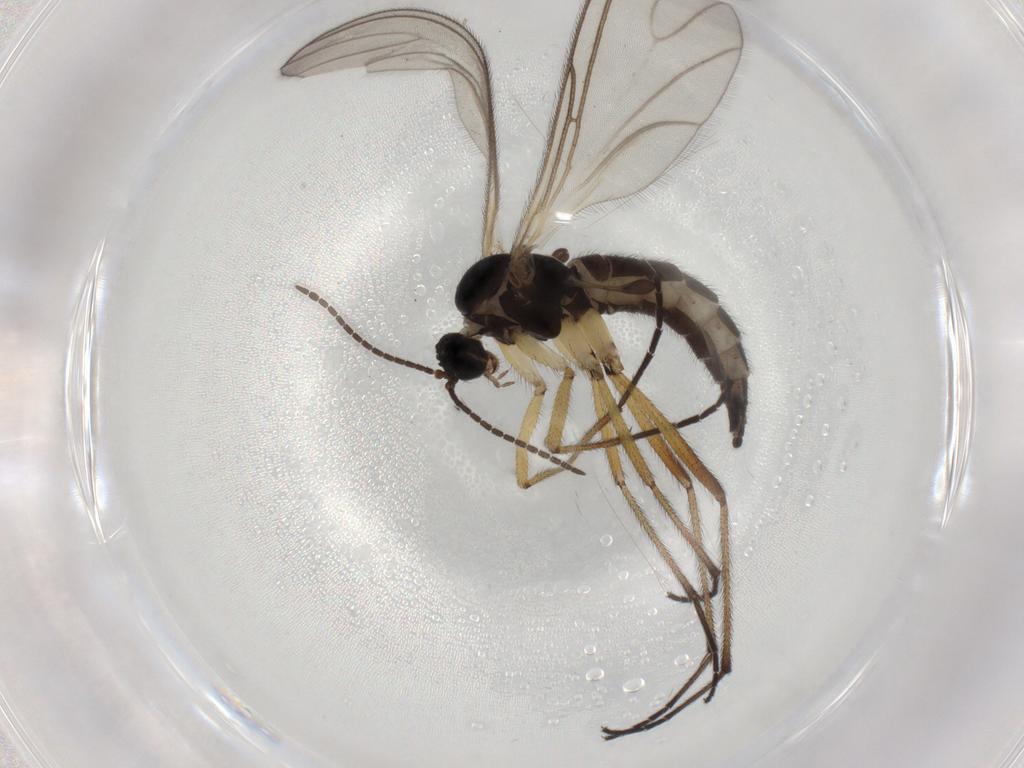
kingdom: Animalia
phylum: Arthropoda
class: Insecta
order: Diptera
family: Sciaridae
